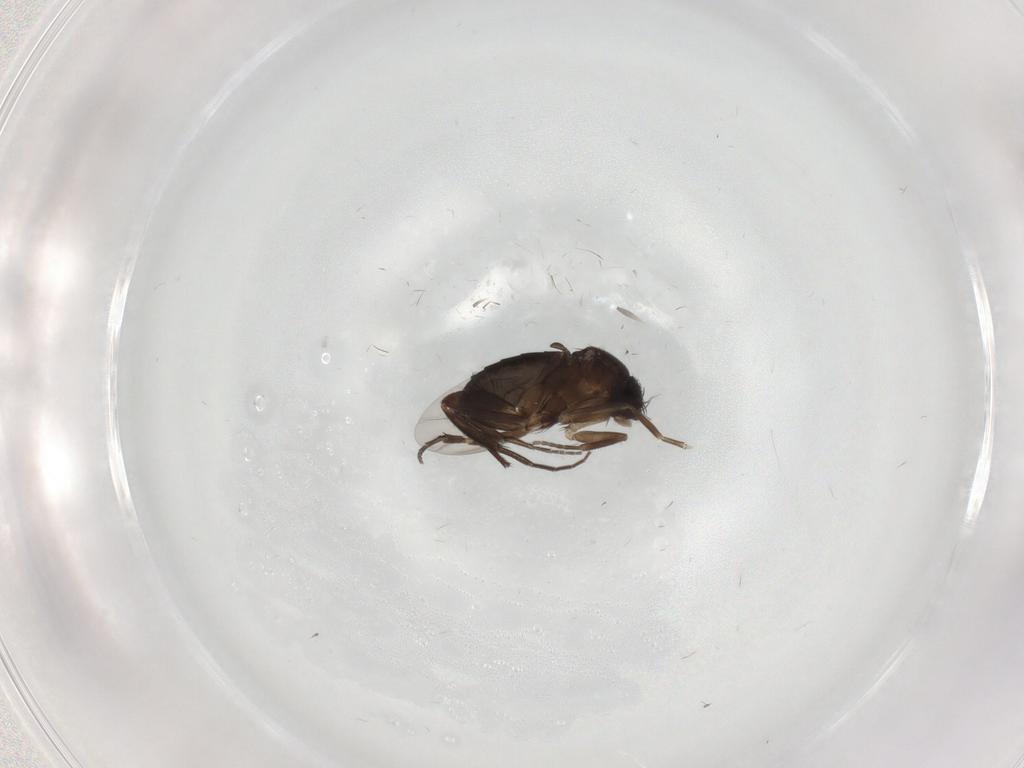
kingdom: Animalia
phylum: Arthropoda
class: Insecta
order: Diptera
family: Phoridae
